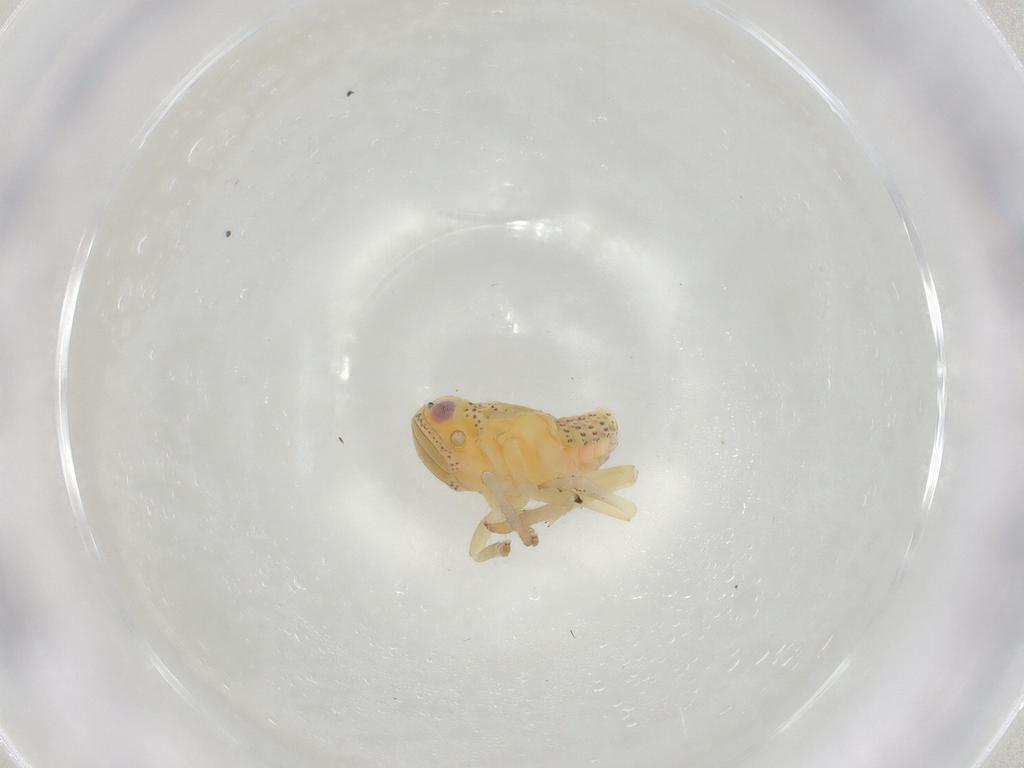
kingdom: Animalia
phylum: Arthropoda
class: Insecta
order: Hemiptera
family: Tropiduchidae
